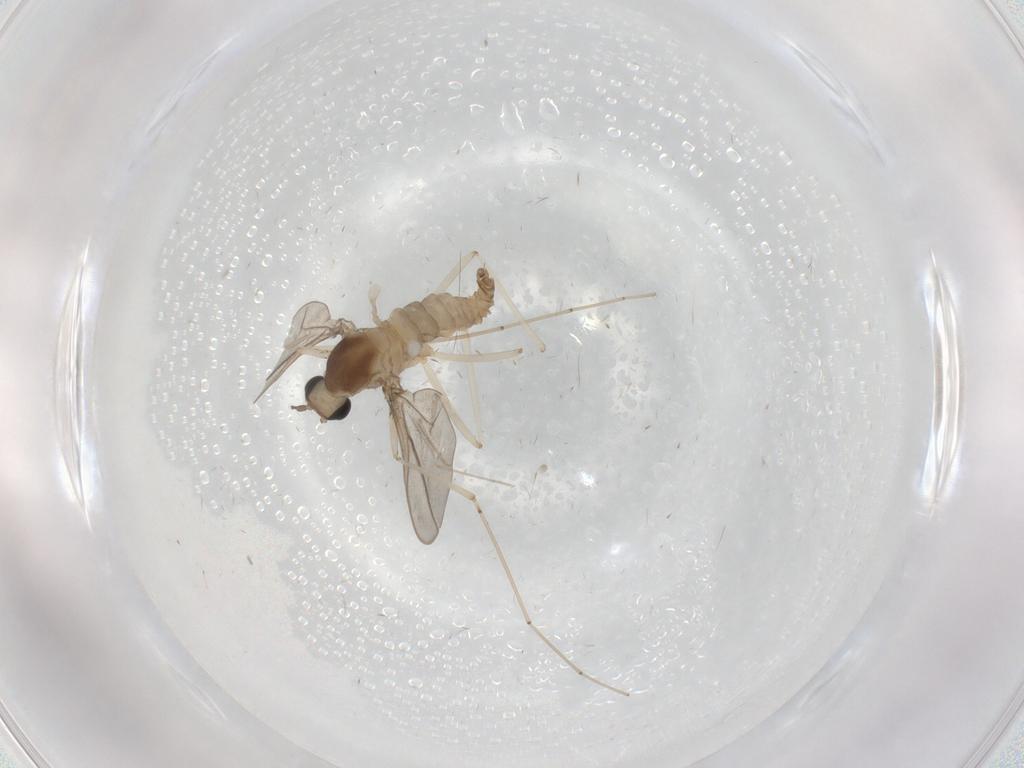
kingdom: Animalia
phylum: Arthropoda
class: Insecta
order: Diptera
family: Cecidomyiidae
